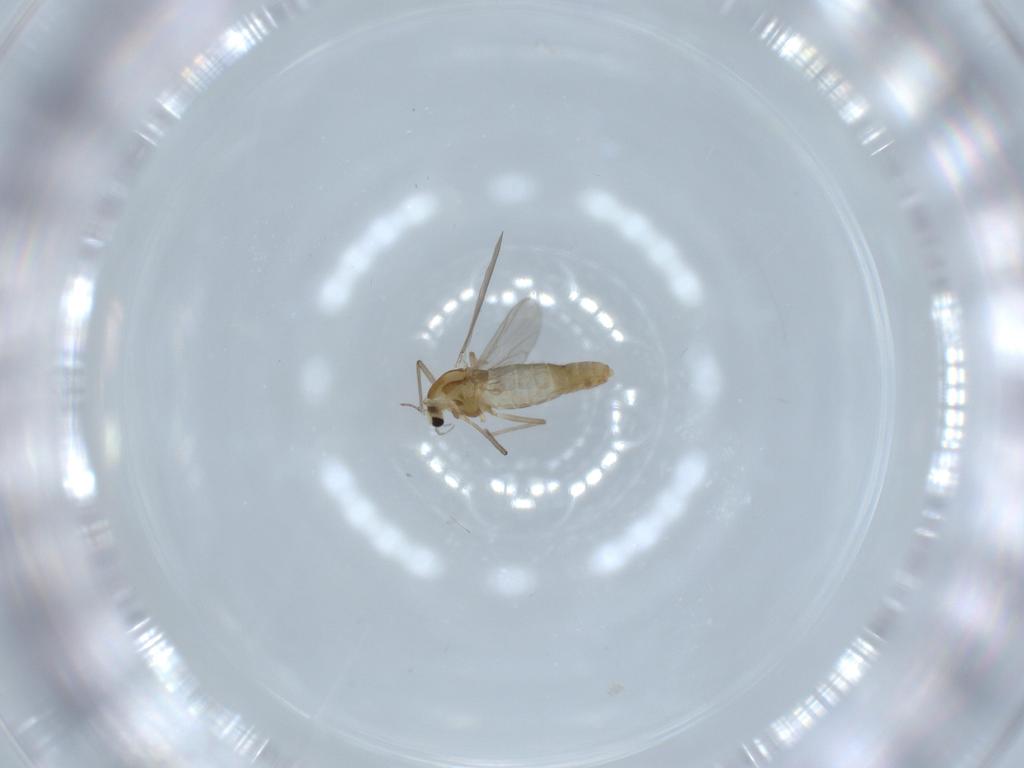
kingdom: Animalia
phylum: Arthropoda
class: Insecta
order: Diptera
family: Chironomidae
